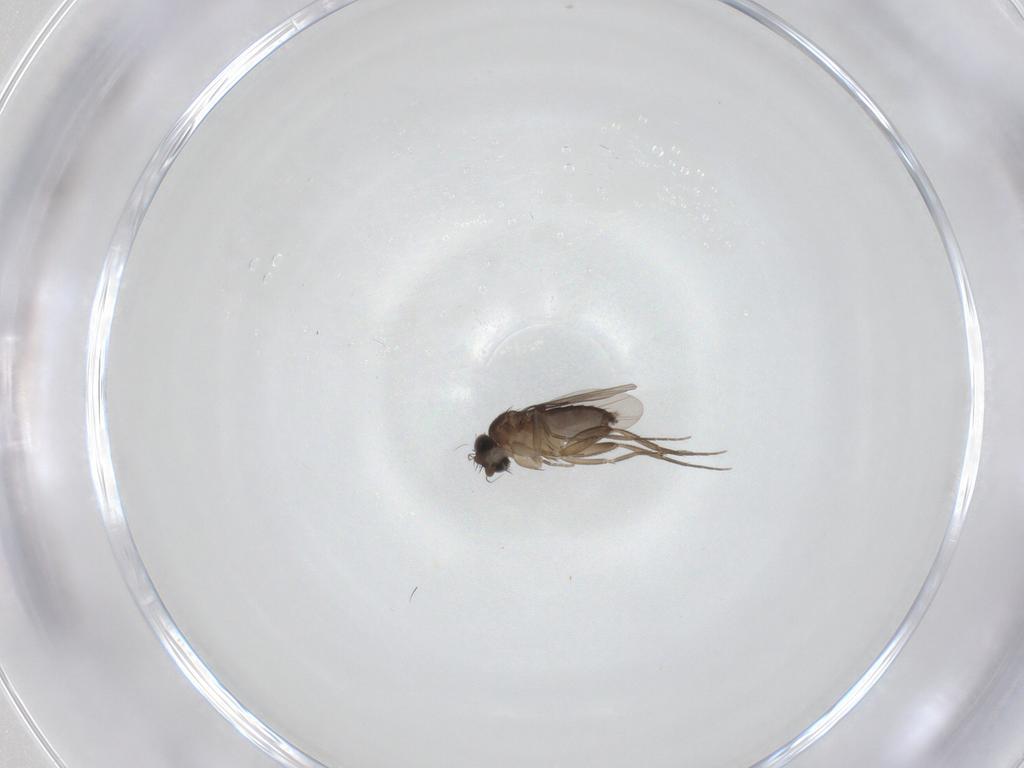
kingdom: Animalia
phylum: Arthropoda
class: Insecta
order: Diptera
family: Phoridae
